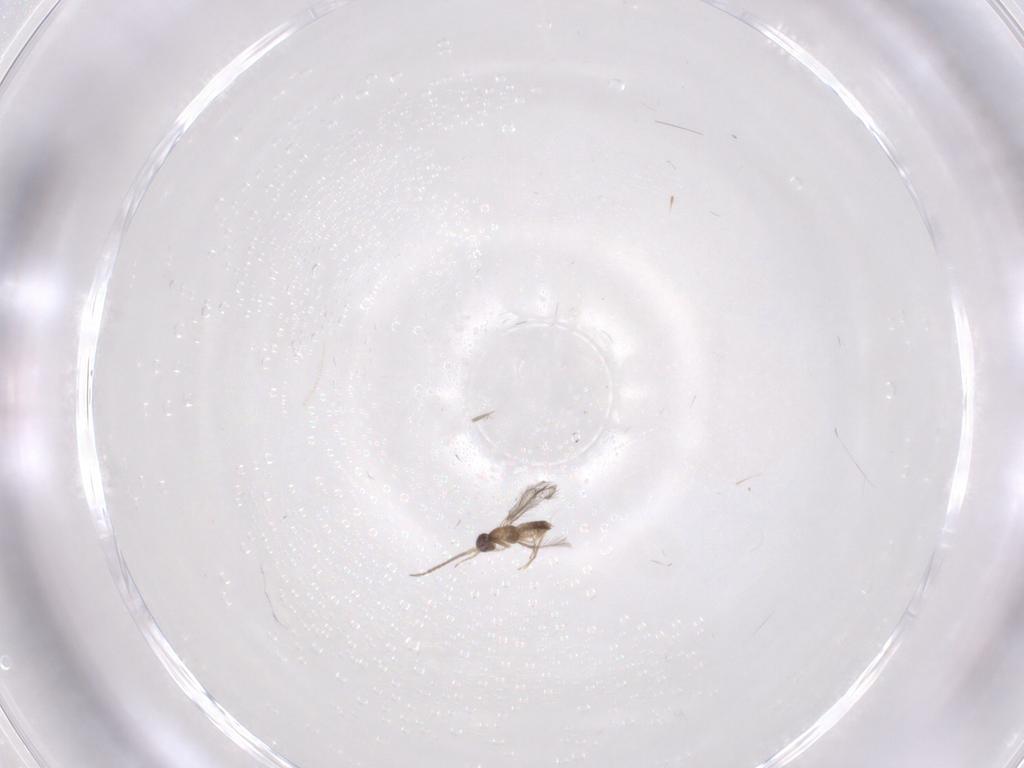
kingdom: Animalia
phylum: Arthropoda
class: Insecta
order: Hymenoptera
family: Mymaridae
